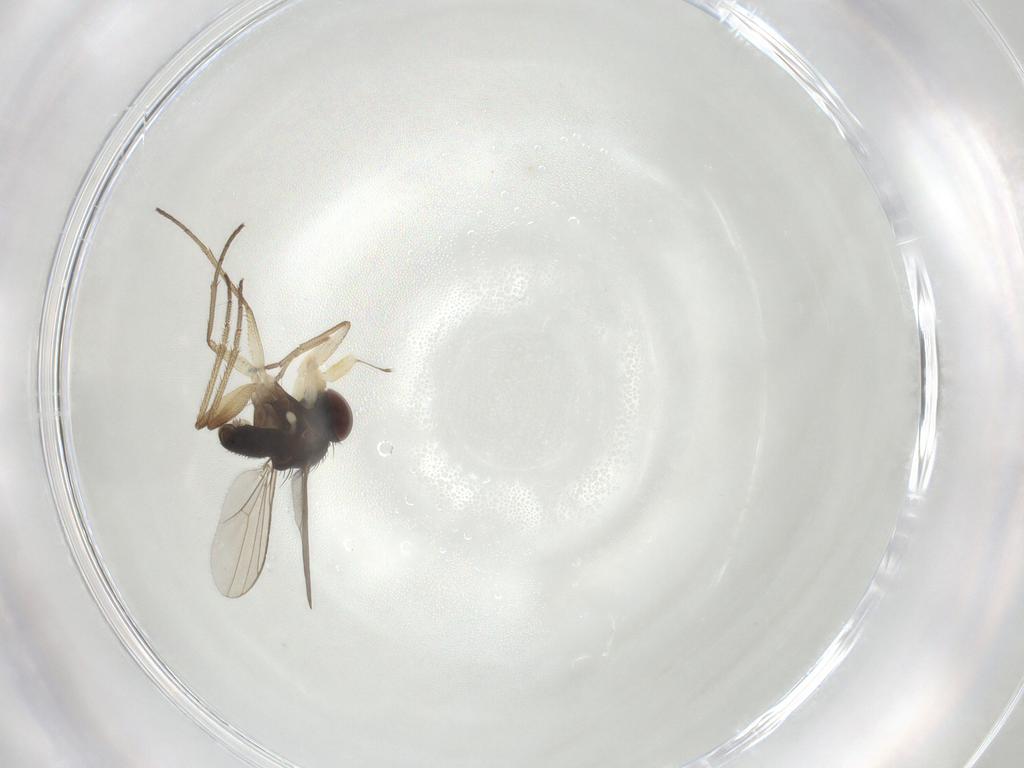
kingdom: Animalia
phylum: Arthropoda
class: Insecta
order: Diptera
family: Dolichopodidae
